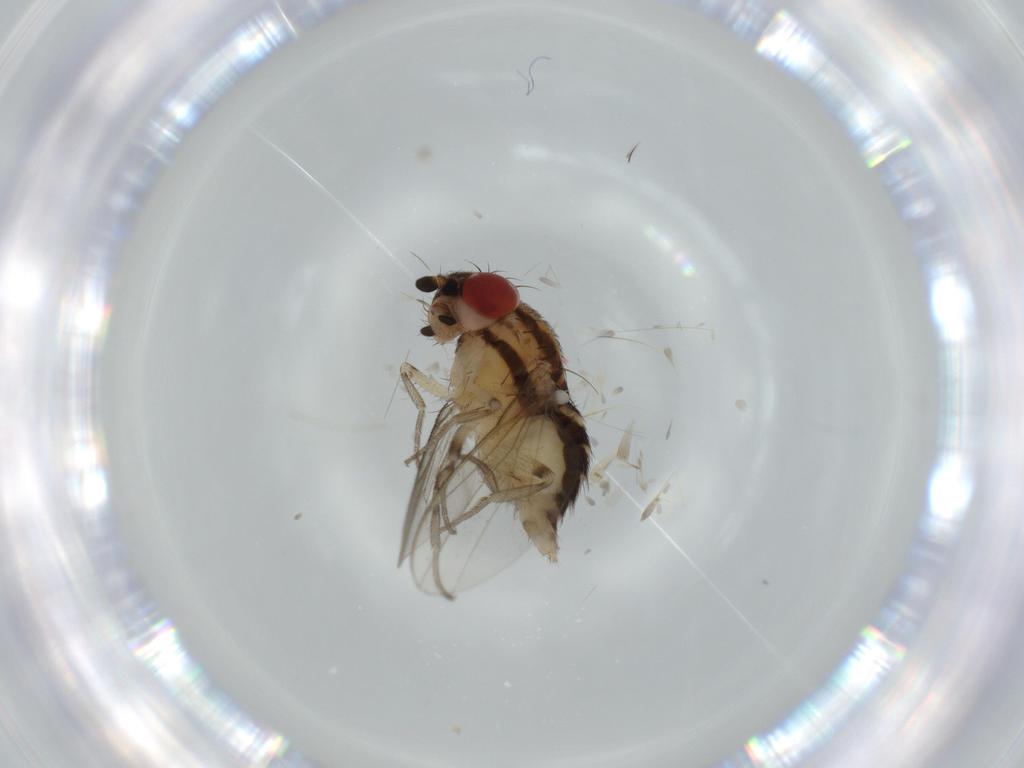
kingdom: Animalia
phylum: Arthropoda
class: Insecta
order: Diptera
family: Drosophilidae
